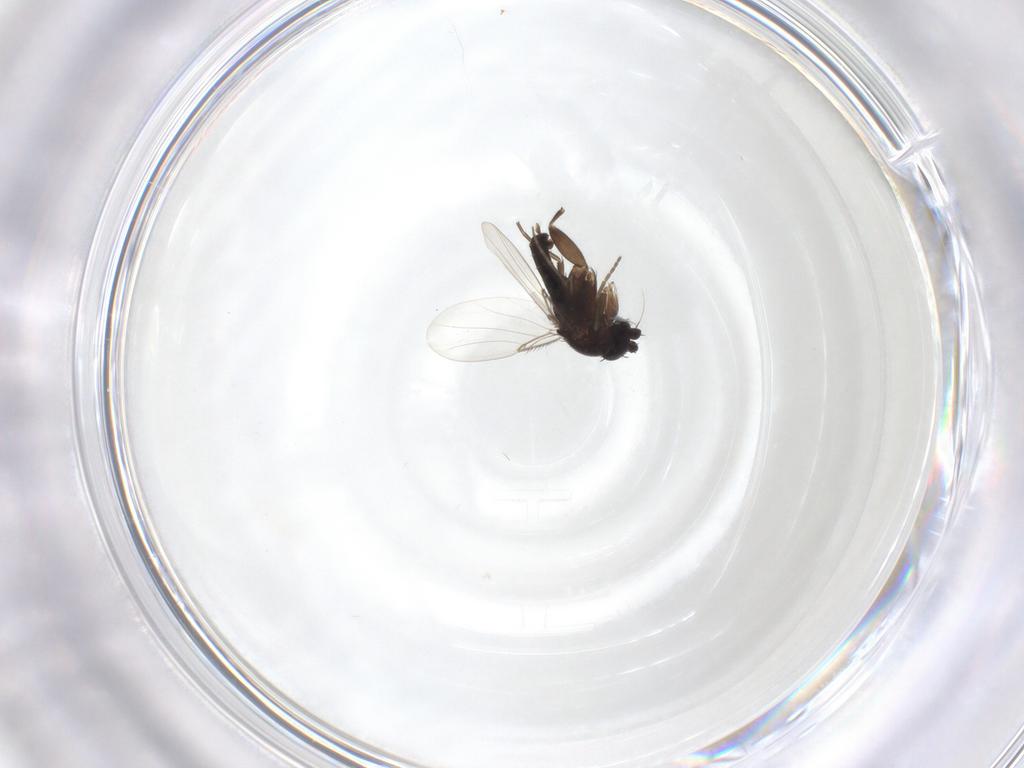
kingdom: Animalia
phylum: Arthropoda
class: Insecta
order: Diptera
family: Phoridae
